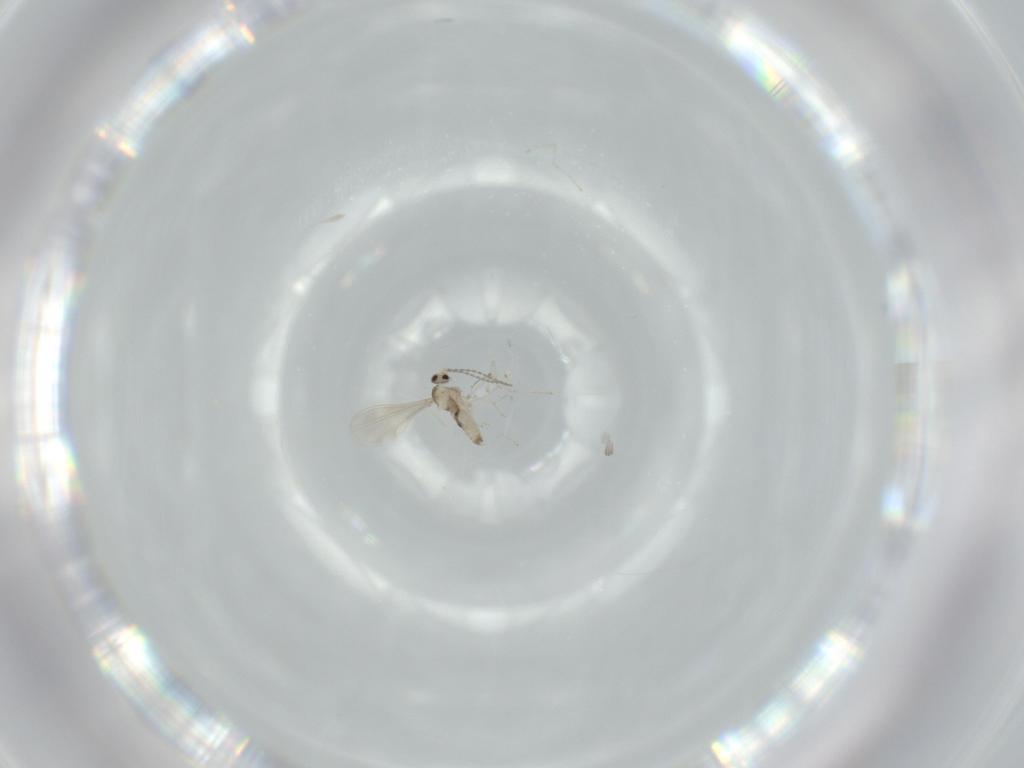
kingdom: Animalia
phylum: Arthropoda
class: Insecta
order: Diptera
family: Cecidomyiidae
